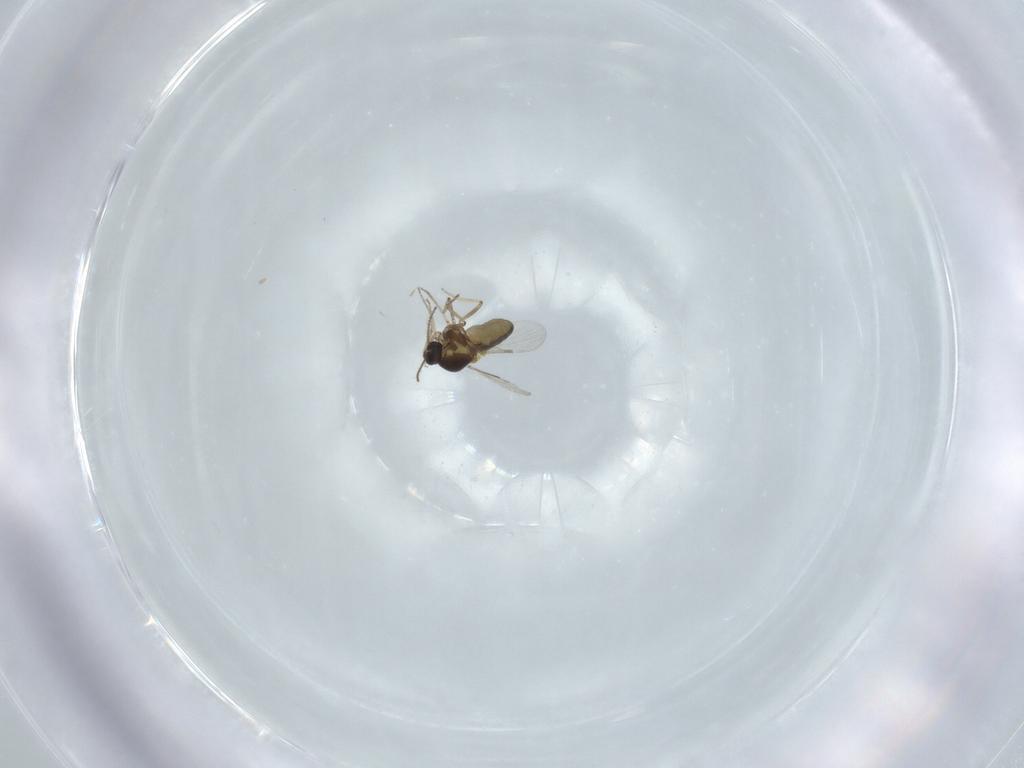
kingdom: Animalia
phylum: Arthropoda
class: Insecta
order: Diptera
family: Ceratopogonidae
